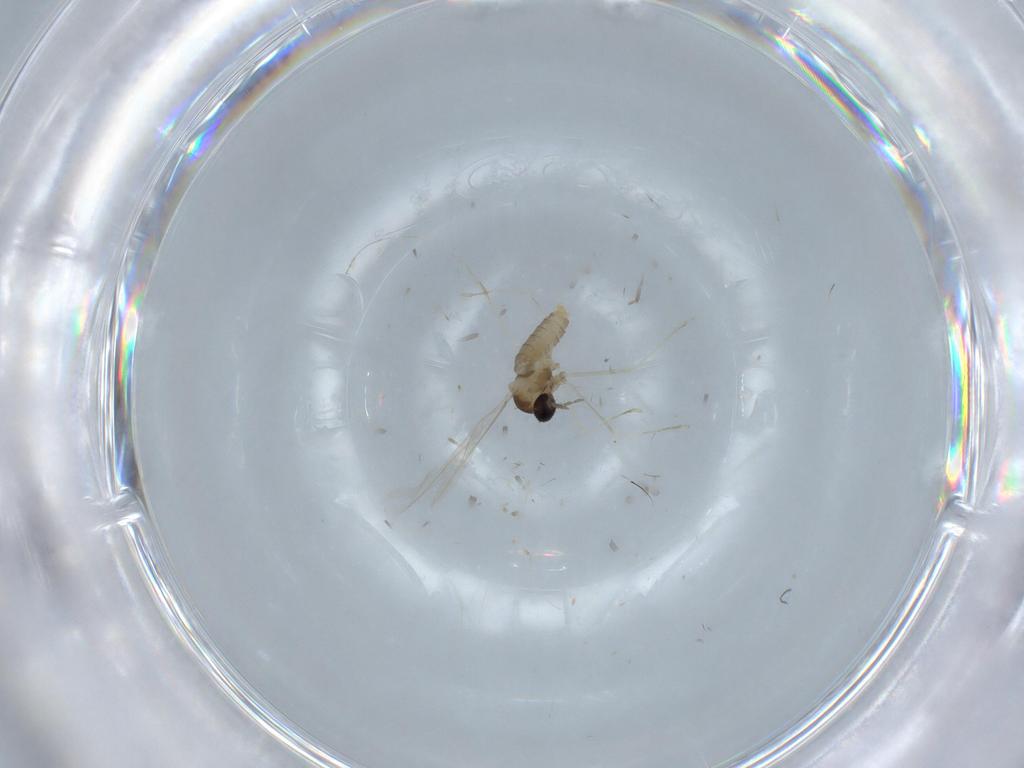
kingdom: Animalia
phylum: Arthropoda
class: Insecta
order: Diptera
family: Cecidomyiidae
